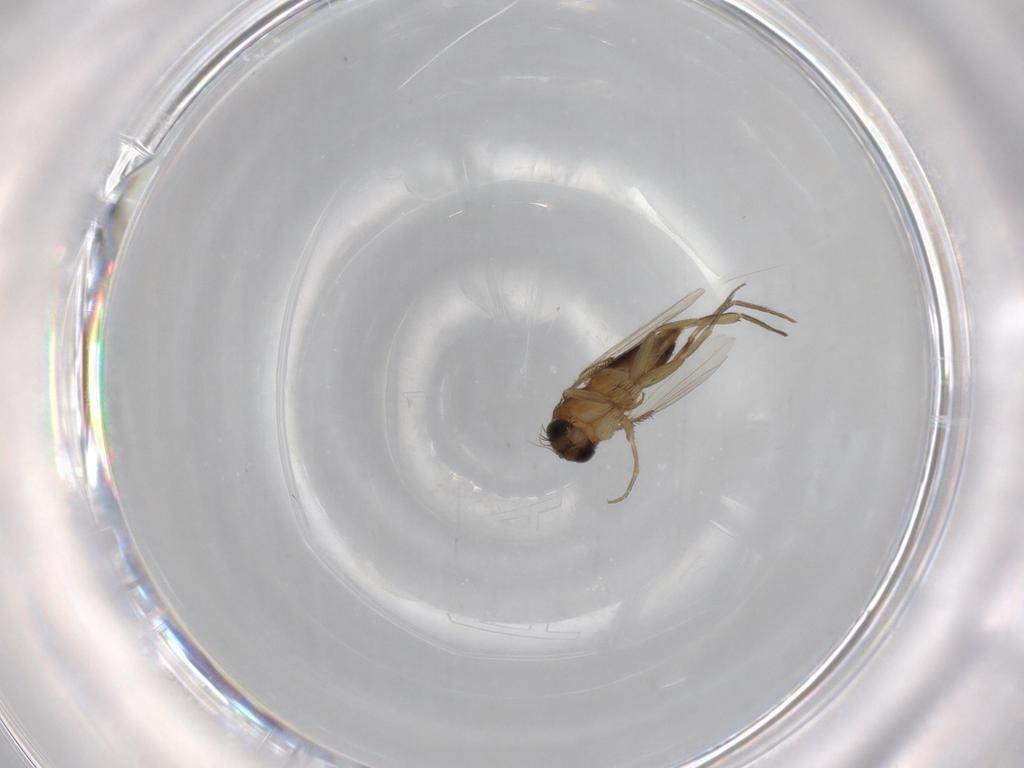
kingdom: Animalia
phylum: Arthropoda
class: Insecta
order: Diptera
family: Phoridae
